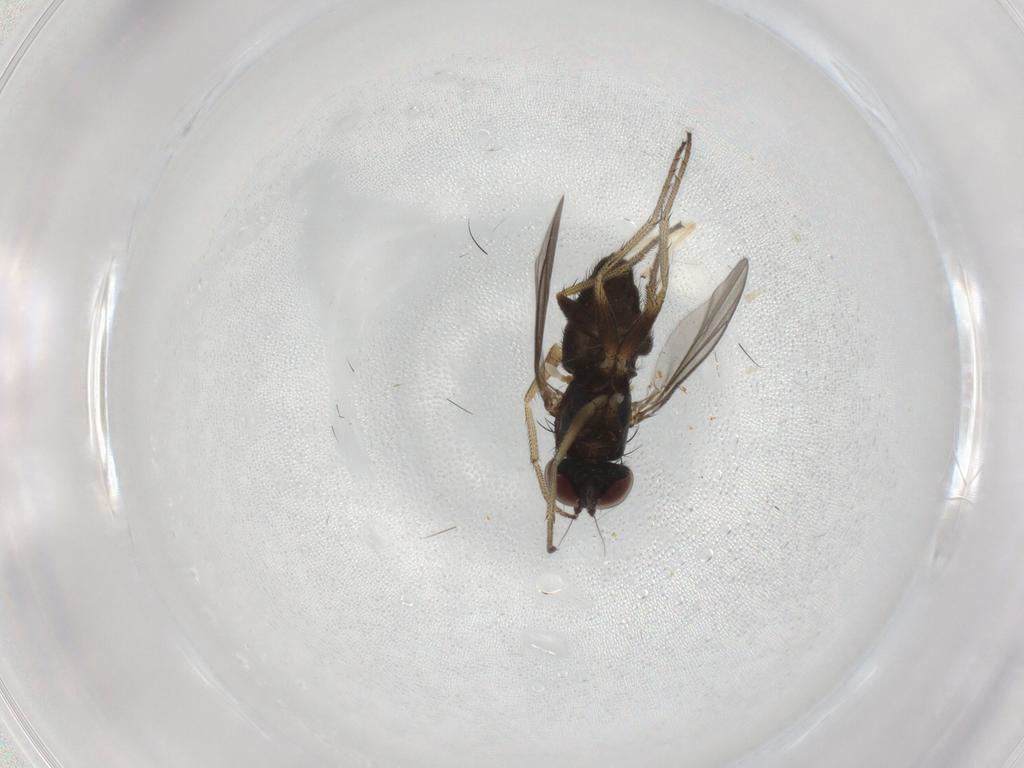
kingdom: Animalia
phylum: Arthropoda
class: Insecta
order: Diptera
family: Chironomidae
